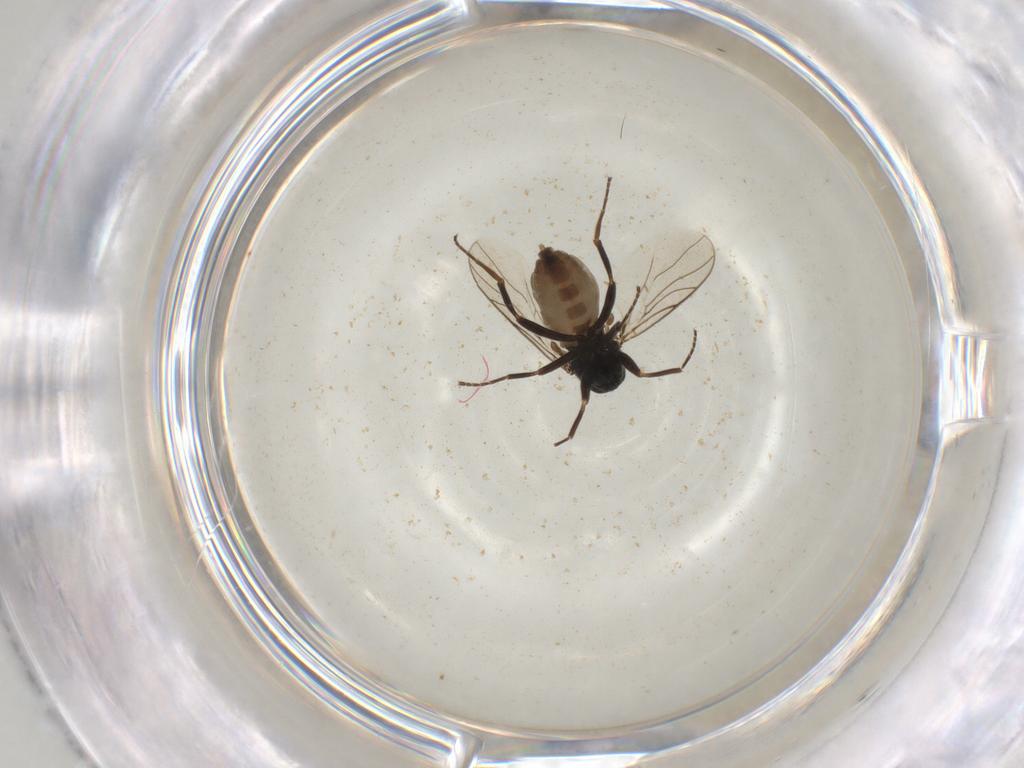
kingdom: Animalia
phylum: Arthropoda
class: Insecta
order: Diptera
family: Hybotidae
